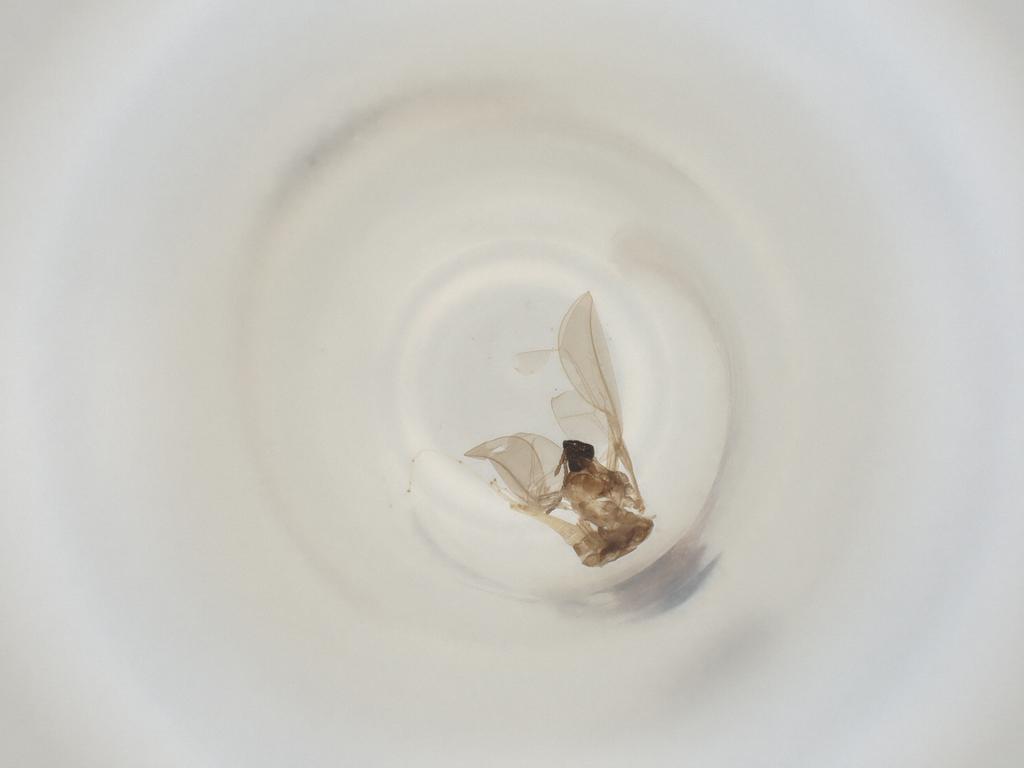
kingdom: Animalia
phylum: Arthropoda
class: Insecta
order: Diptera
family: Cecidomyiidae
